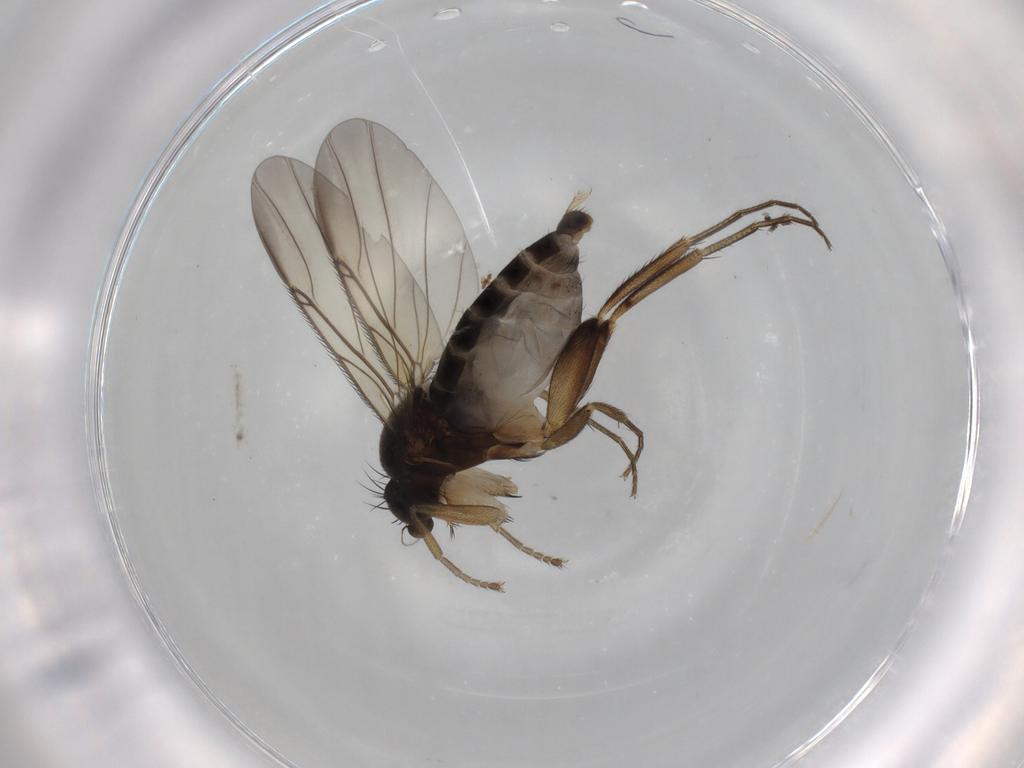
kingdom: Animalia
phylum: Arthropoda
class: Insecta
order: Diptera
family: Phoridae
